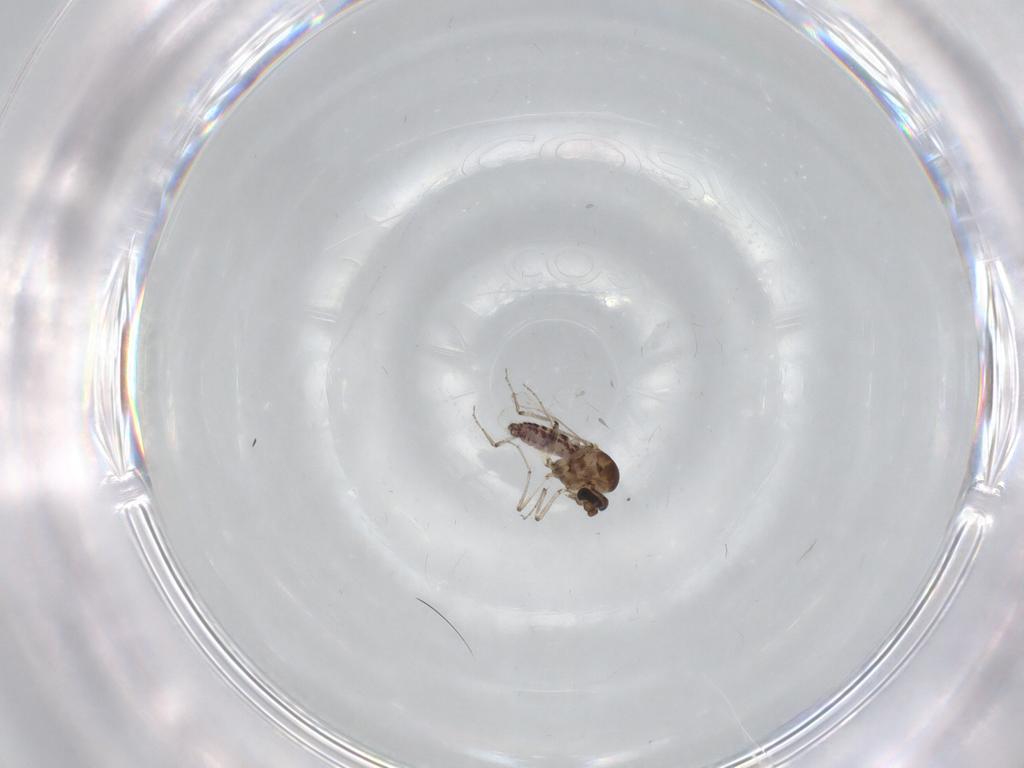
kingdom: Animalia
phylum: Arthropoda
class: Insecta
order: Diptera
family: Ceratopogonidae
